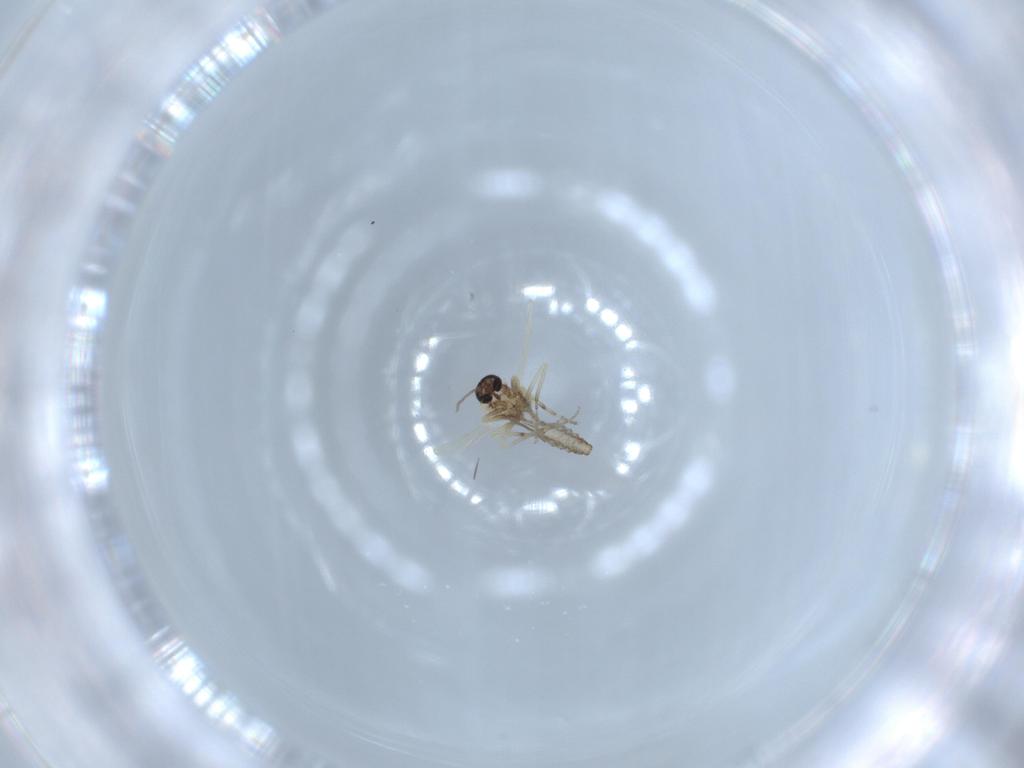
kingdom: Animalia
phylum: Arthropoda
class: Insecta
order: Diptera
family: Ceratopogonidae
